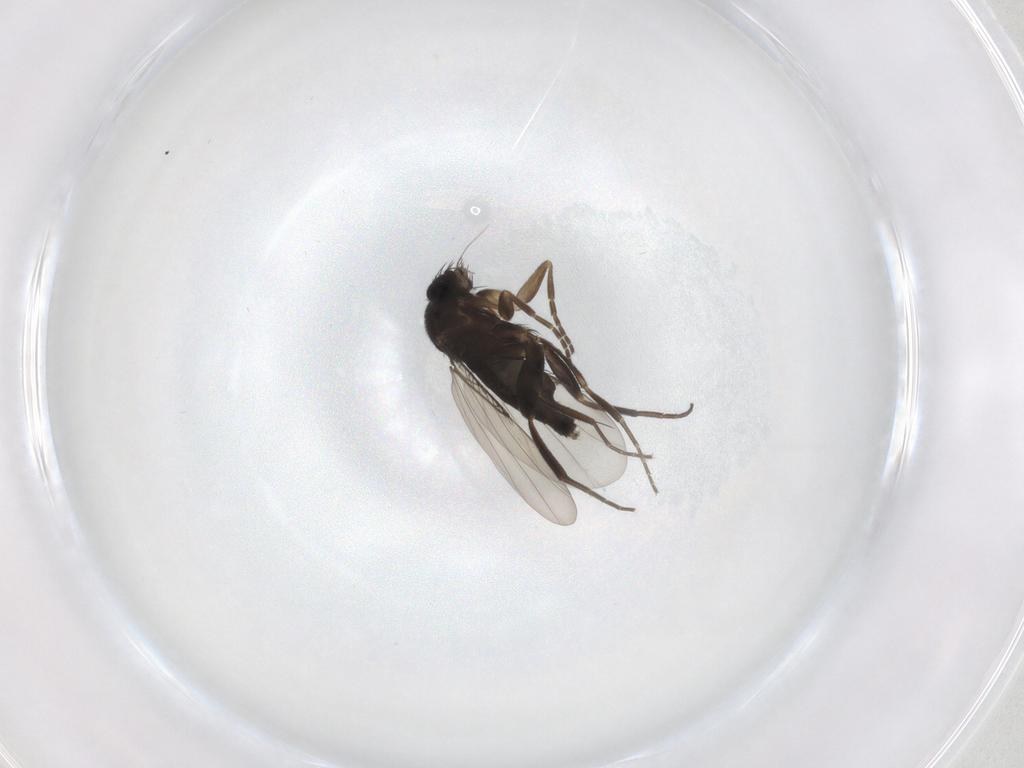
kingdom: Animalia
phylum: Arthropoda
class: Insecta
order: Diptera
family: Phoridae
